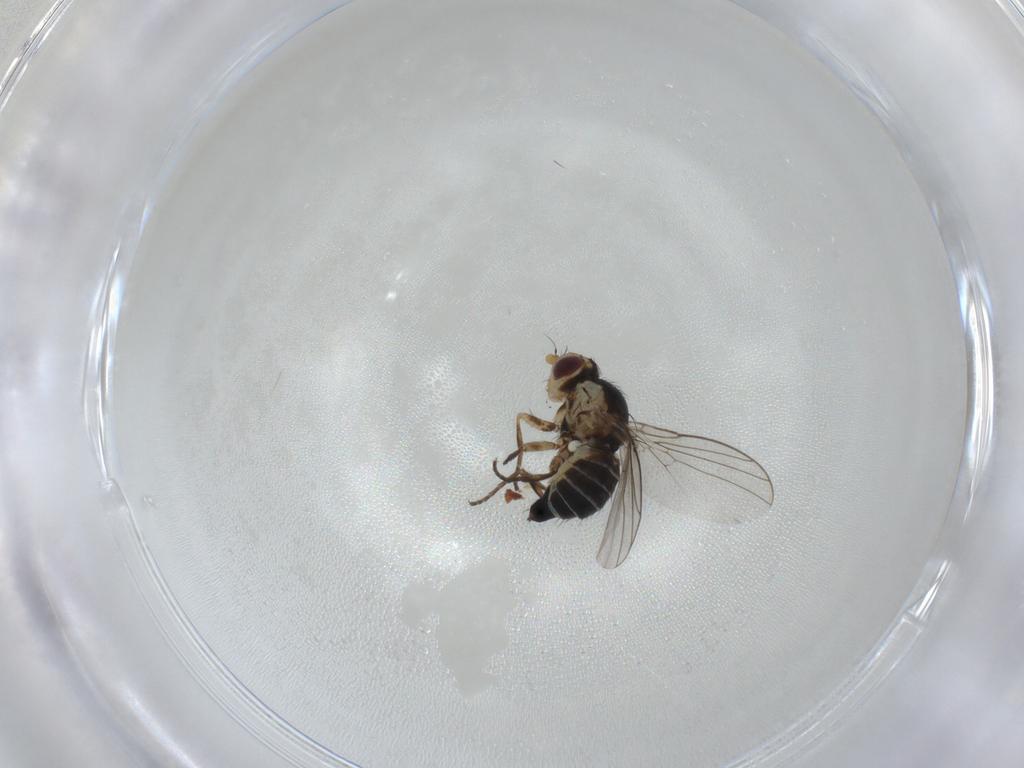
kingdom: Animalia
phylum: Arthropoda
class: Insecta
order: Diptera
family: Agromyzidae
